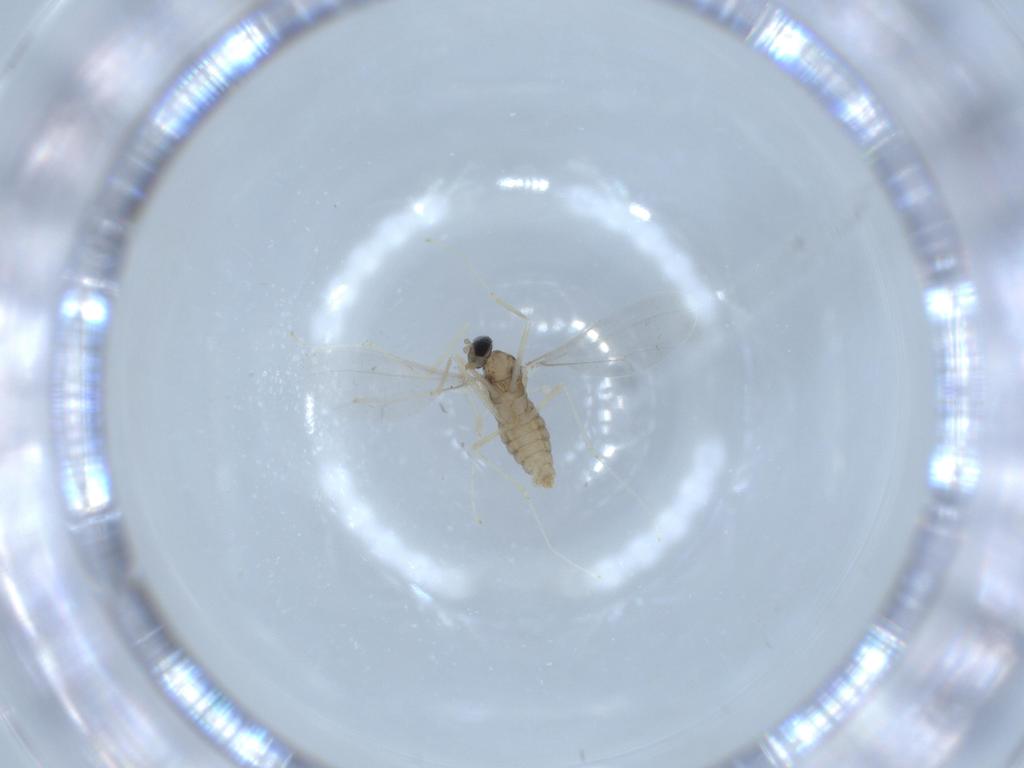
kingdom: Animalia
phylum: Arthropoda
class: Insecta
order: Diptera
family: Cecidomyiidae
